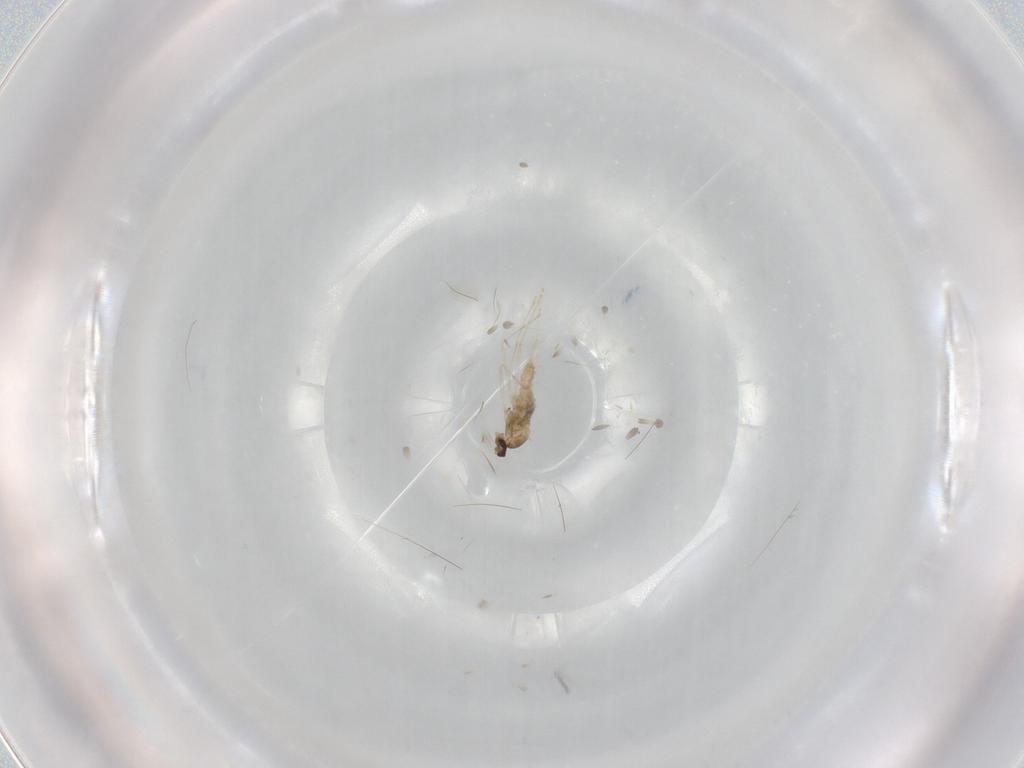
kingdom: Animalia
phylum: Arthropoda
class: Insecta
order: Diptera
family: Cecidomyiidae
